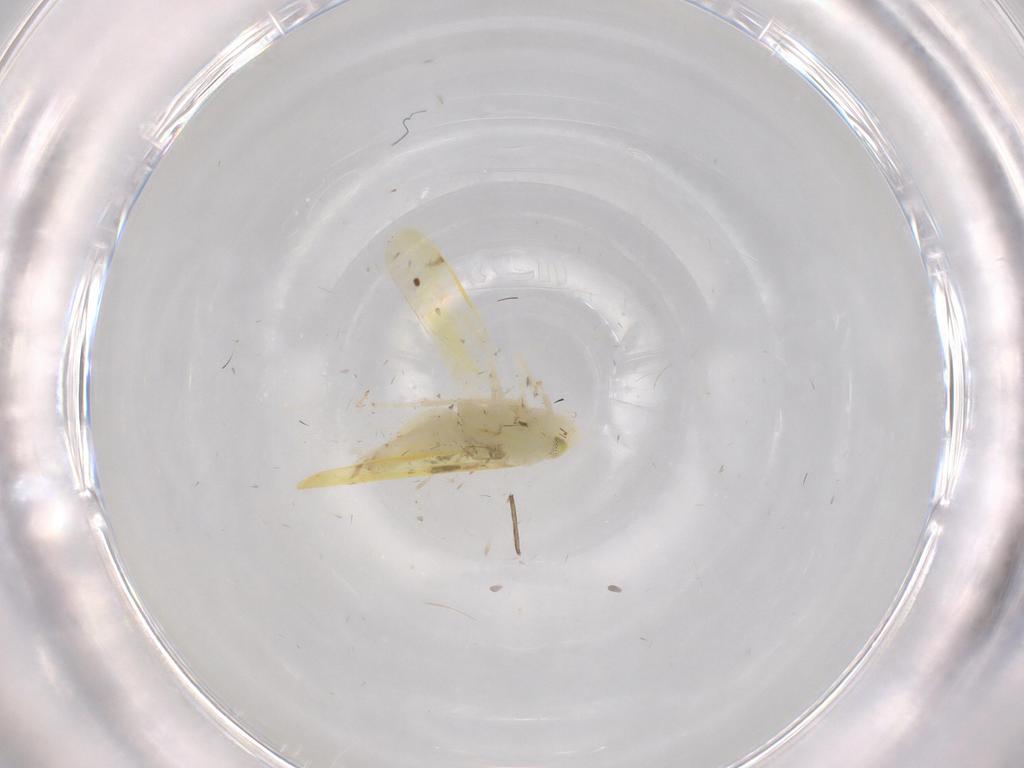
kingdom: Animalia
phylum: Arthropoda
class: Insecta
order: Hemiptera
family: Cicadellidae
